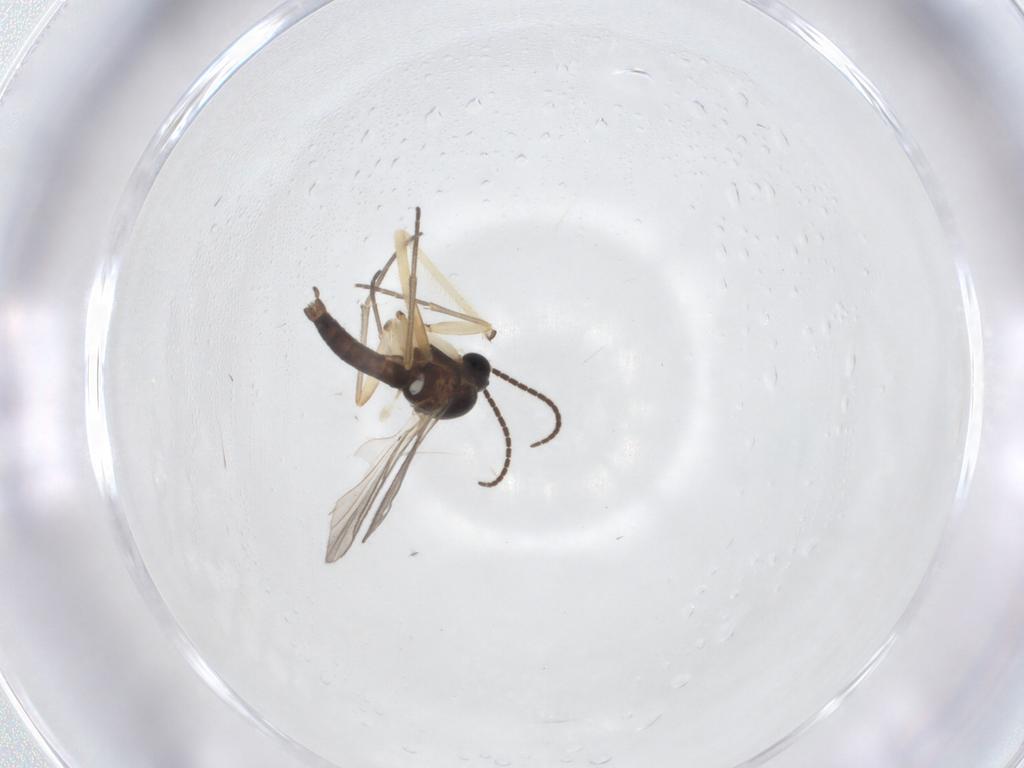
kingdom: Animalia
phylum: Arthropoda
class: Insecta
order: Diptera
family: Sciaridae
